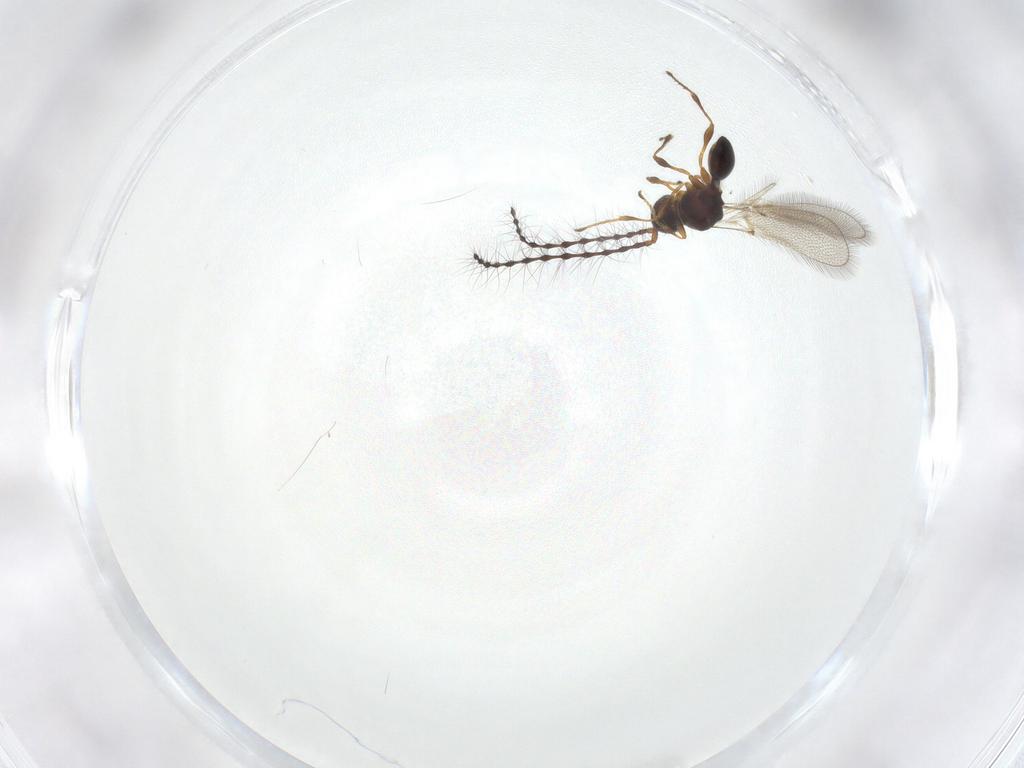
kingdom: Animalia
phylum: Arthropoda
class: Insecta
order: Hymenoptera
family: Diapriidae
